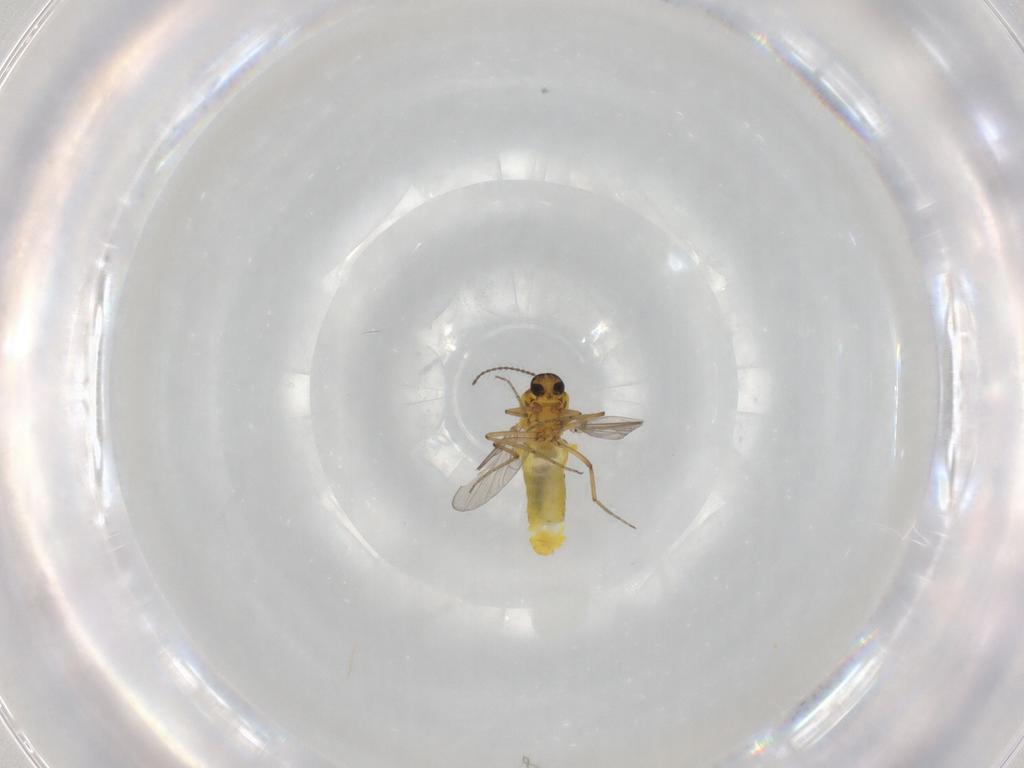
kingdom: Animalia
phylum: Arthropoda
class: Insecta
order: Diptera
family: Ceratopogonidae
